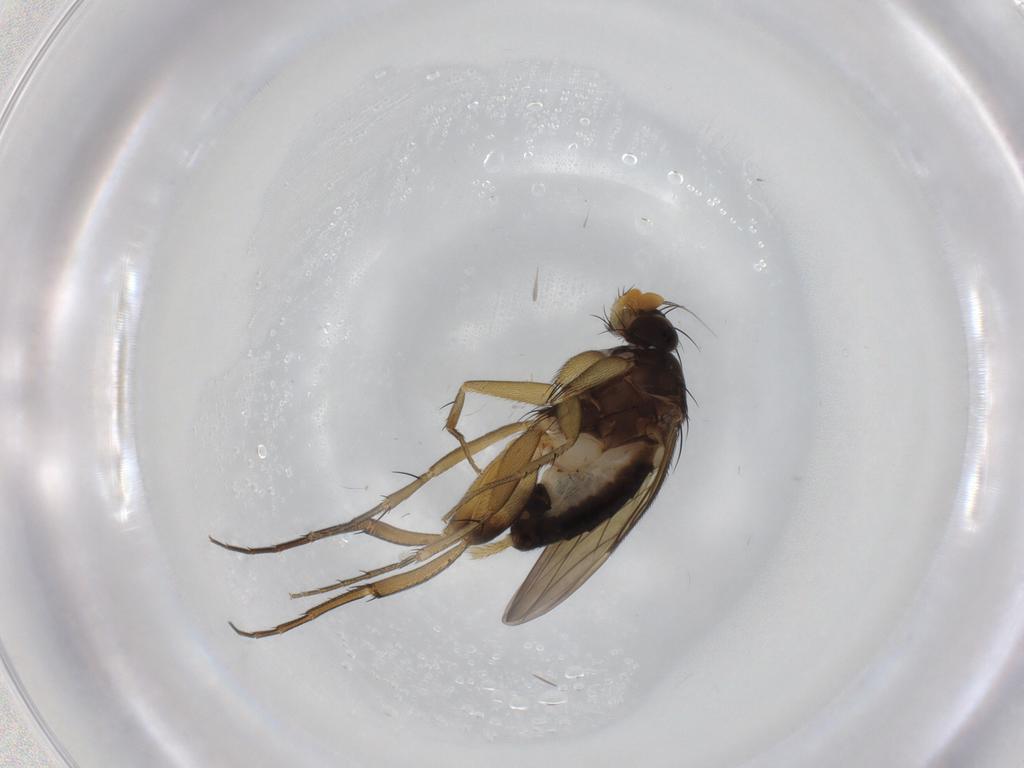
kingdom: Animalia
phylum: Arthropoda
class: Insecta
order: Diptera
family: Phoridae
